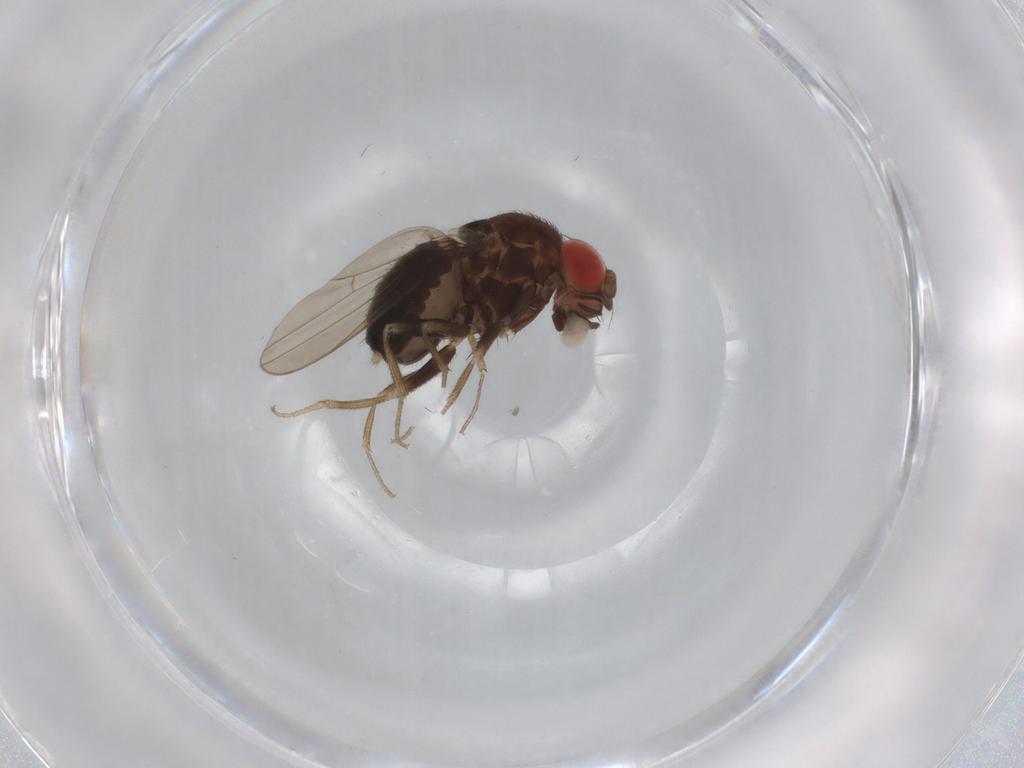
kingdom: Animalia
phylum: Arthropoda
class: Insecta
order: Diptera
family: Drosophilidae
